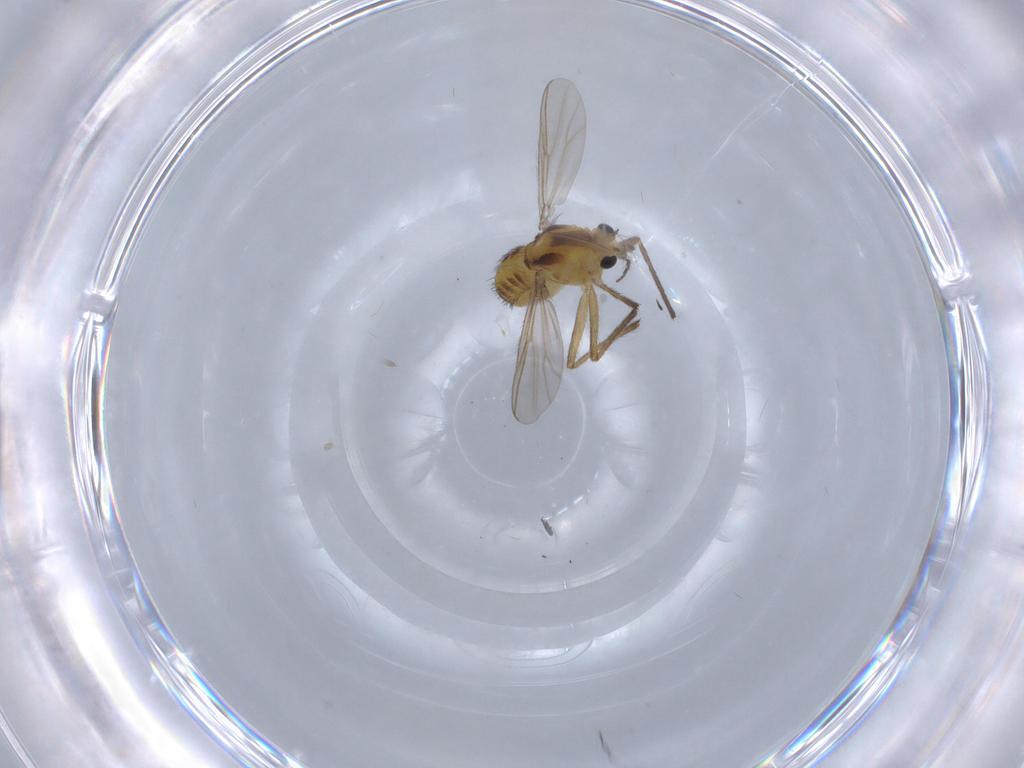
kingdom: Animalia
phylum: Arthropoda
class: Insecta
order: Diptera
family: Chironomidae
